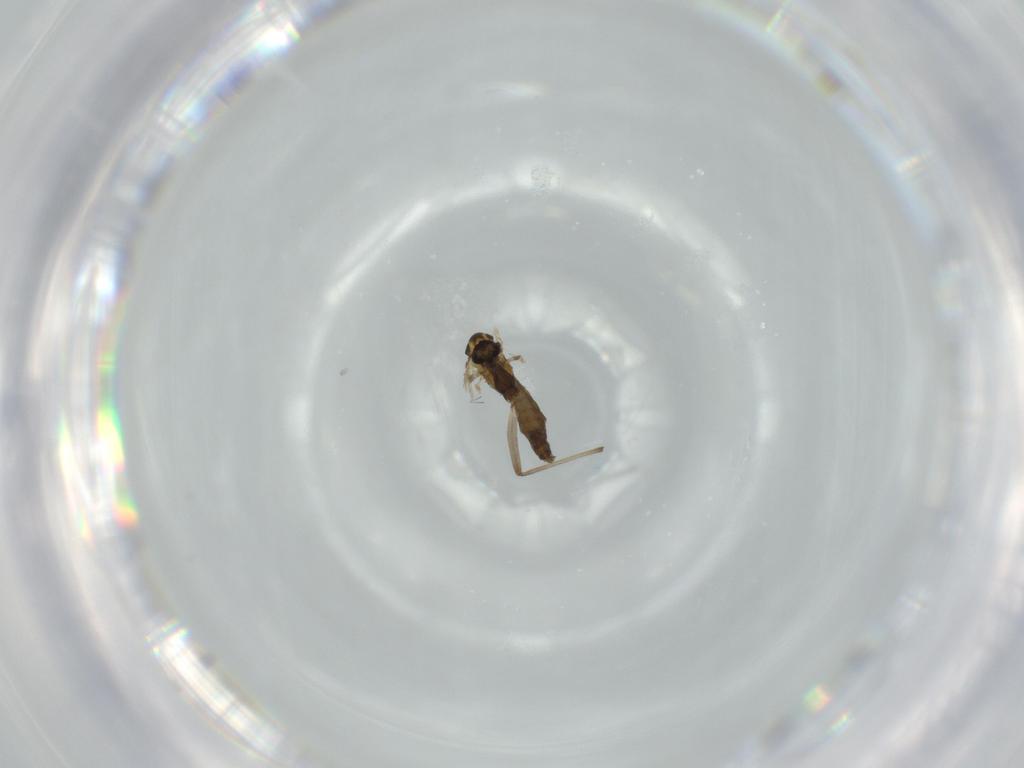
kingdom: Animalia
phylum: Arthropoda
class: Insecta
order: Diptera
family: Chironomidae
